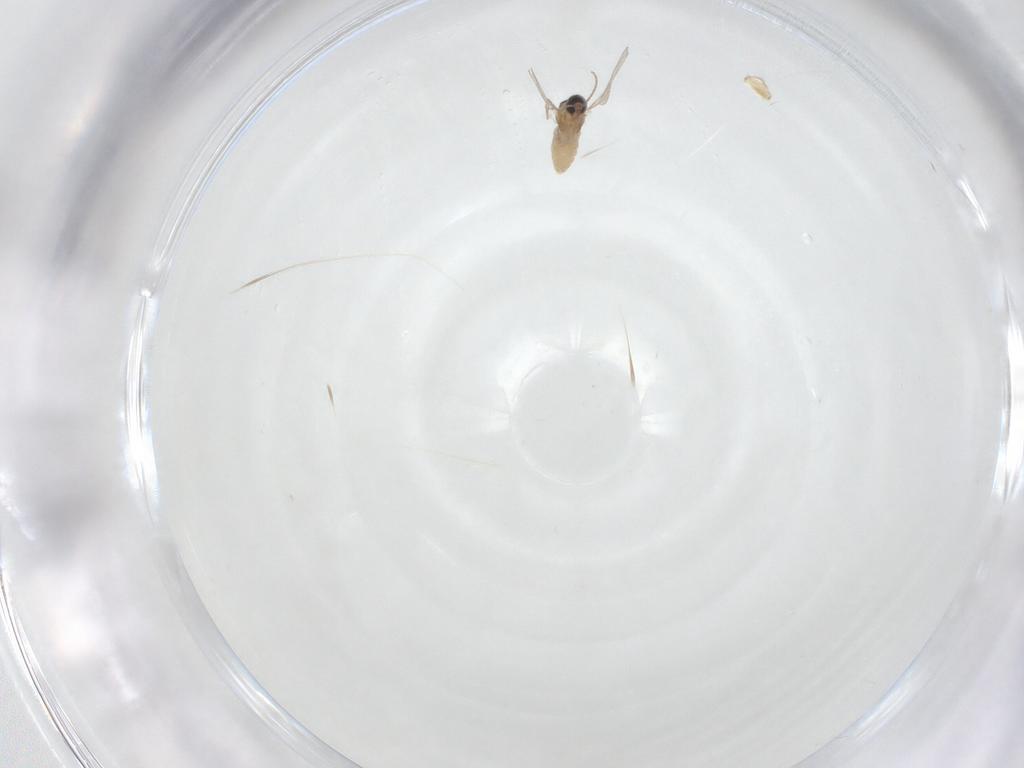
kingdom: Animalia
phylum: Arthropoda
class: Insecta
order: Diptera
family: Cecidomyiidae
